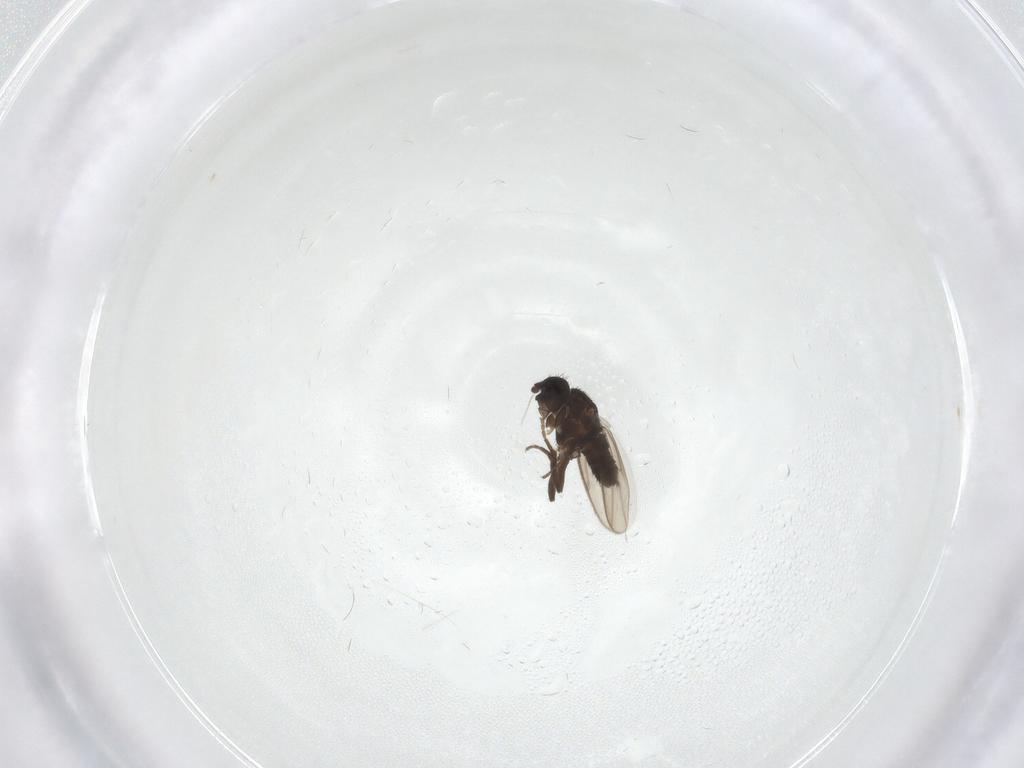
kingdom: Animalia
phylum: Arthropoda
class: Insecta
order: Diptera
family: Sphaeroceridae
